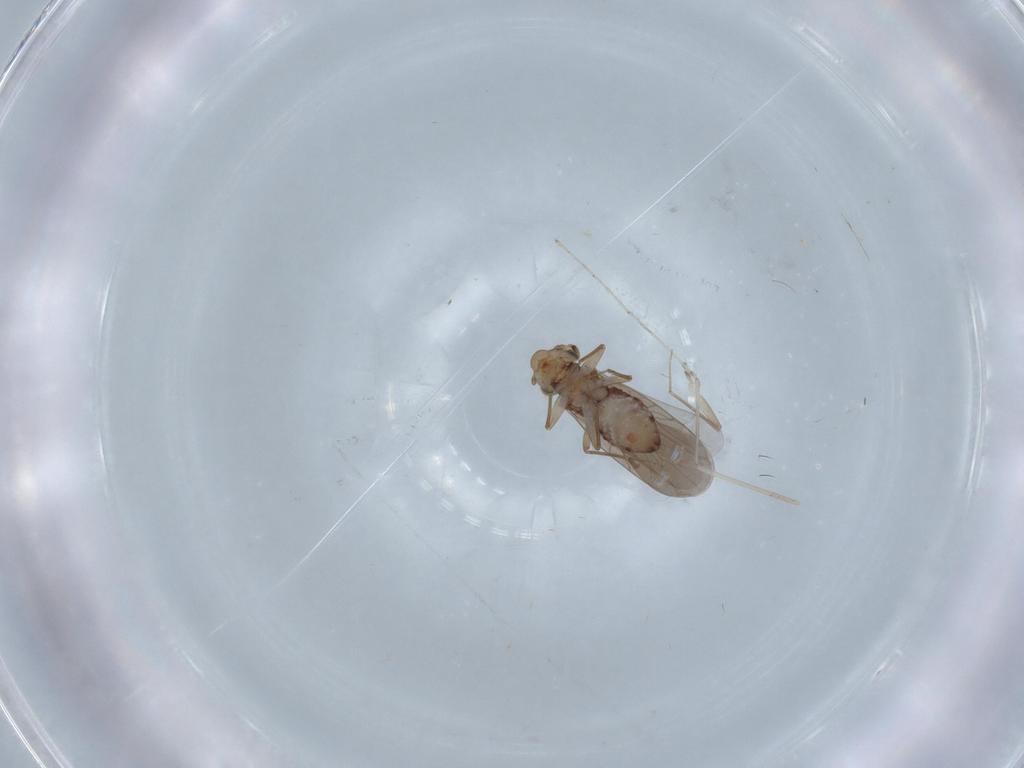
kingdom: Animalia
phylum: Arthropoda
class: Insecta
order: Psocodea
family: Lepidopsocidae
